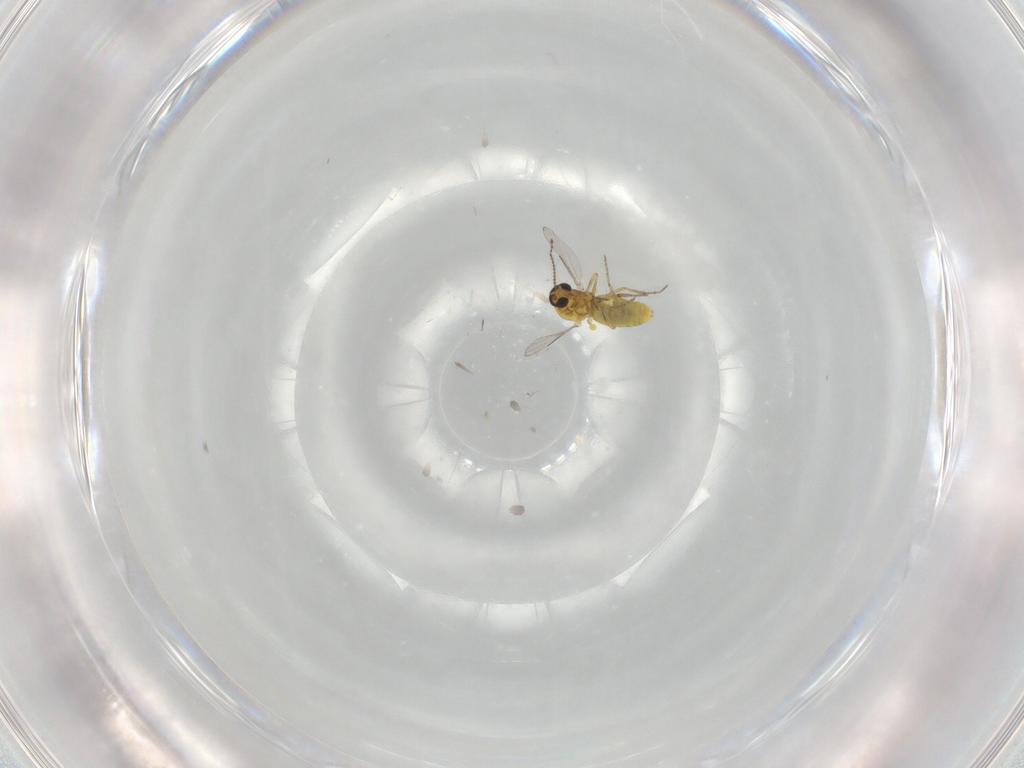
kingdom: Animalia
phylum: Arthropoda
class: Insecta
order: Diptera
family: Ceratopogonidae
